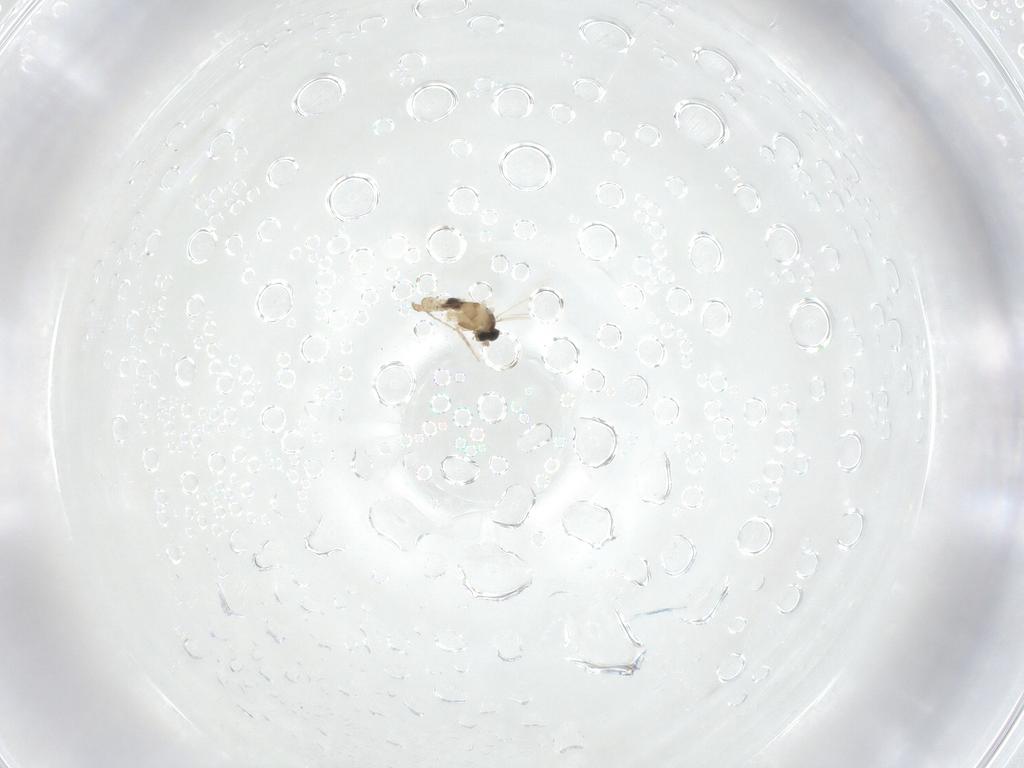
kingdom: Animalia
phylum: Arthropoda
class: Insecta
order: Diptera
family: Cecidomyiidae
